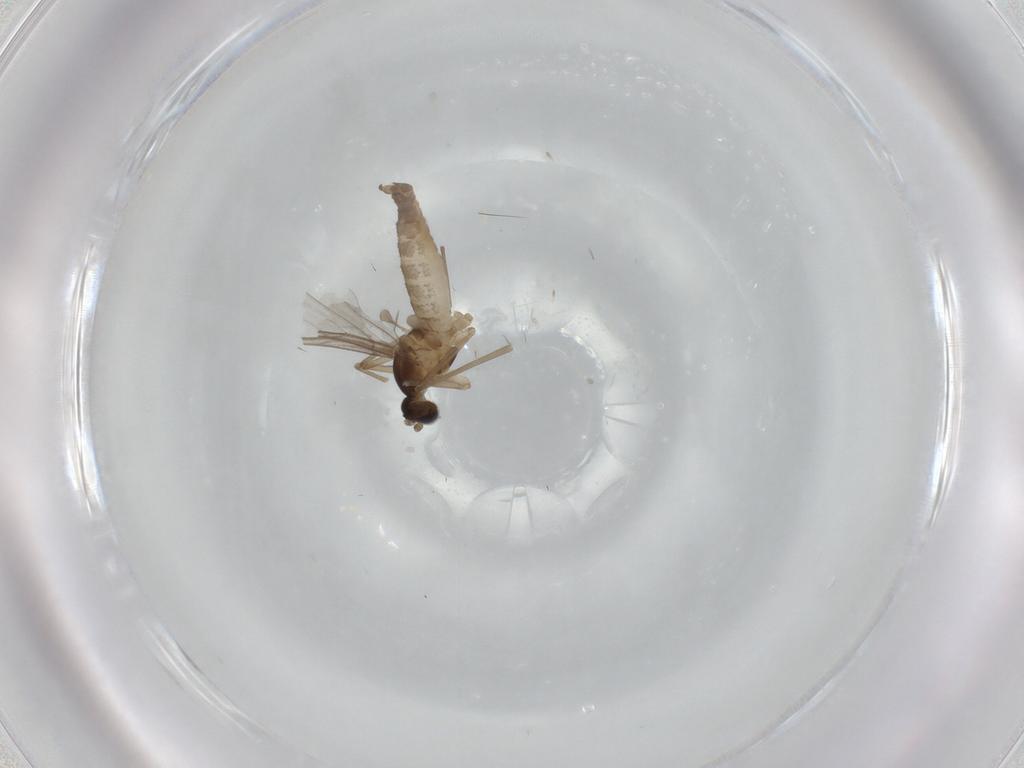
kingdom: Animalia
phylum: Arthropoda
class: Insecta
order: Diptera
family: Cecidomyiidae
